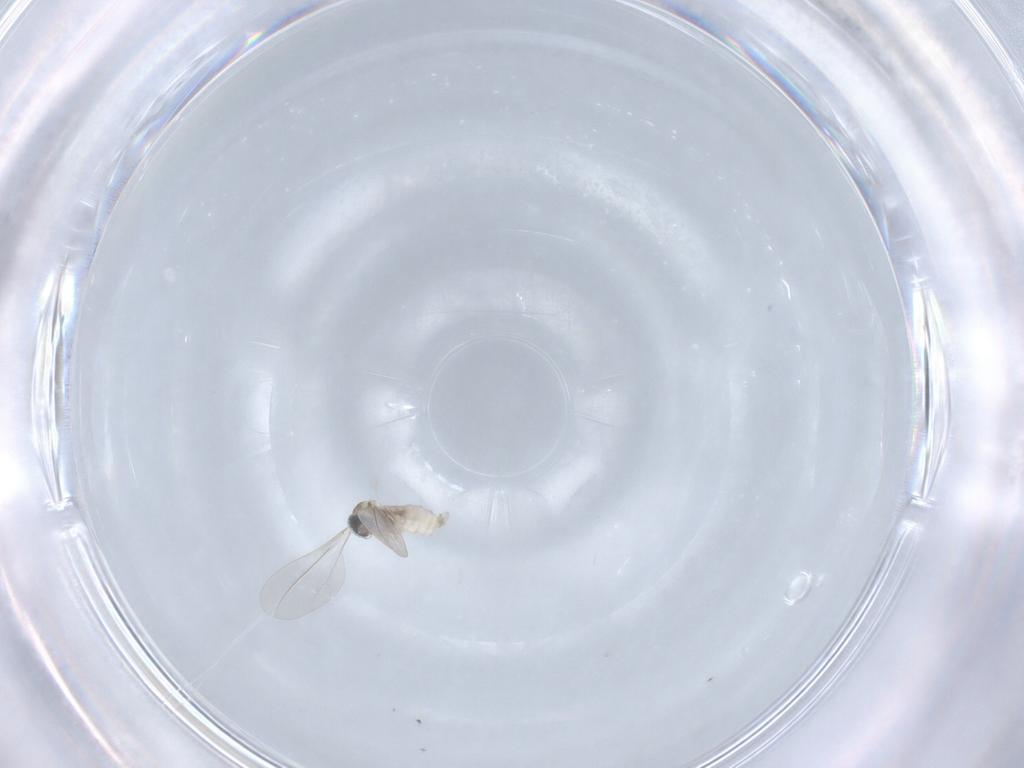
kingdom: Animalia
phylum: Arthropoda
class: Insecta
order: Diptera
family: Cecidomyiidae
